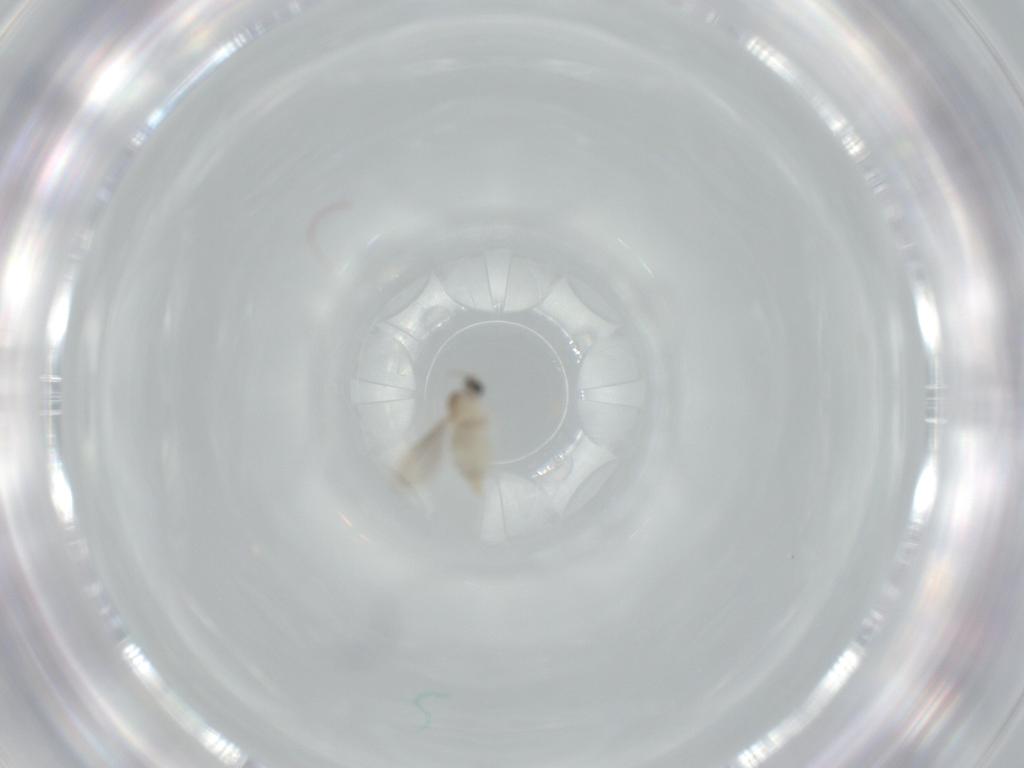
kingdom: Animalia
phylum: Arthropoda
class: Insecta
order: Diptera
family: Cecidomyiidae
